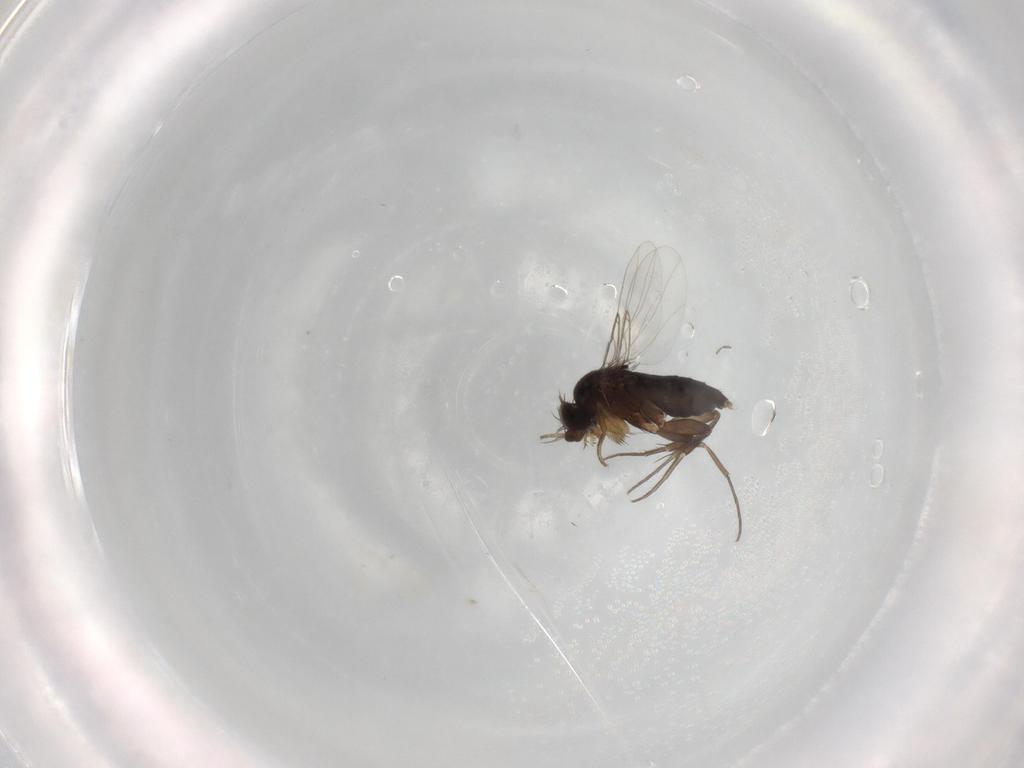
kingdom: Animalia
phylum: Arthropoda
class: Insecta
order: Diptera
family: Phoridae
